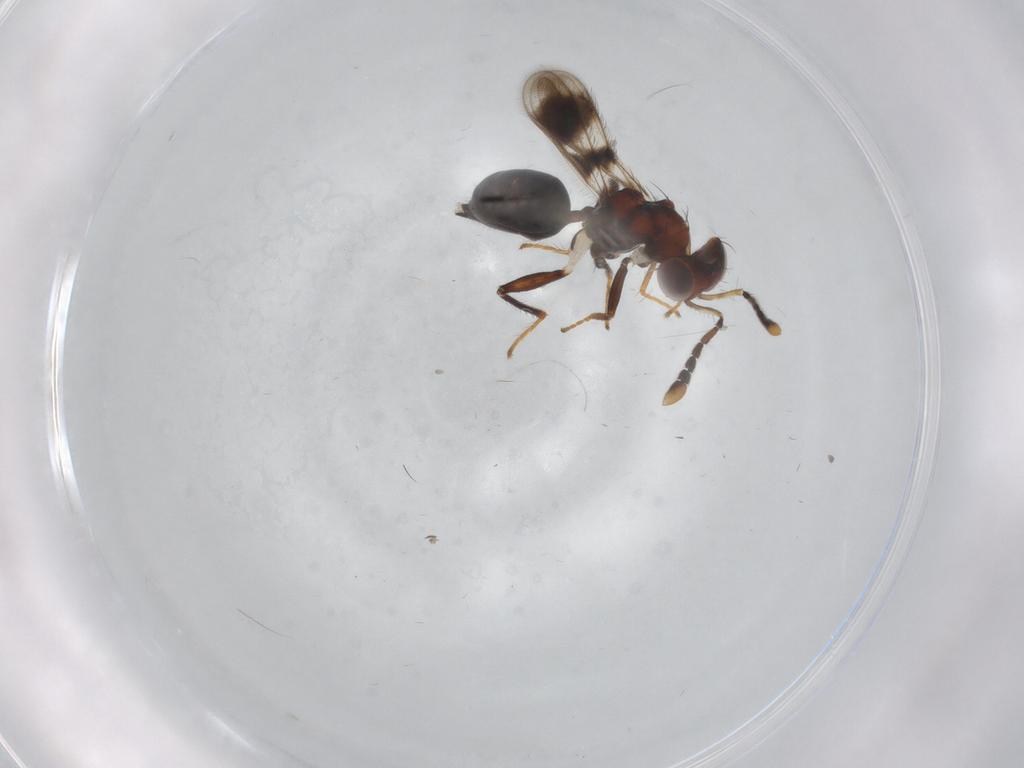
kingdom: Animalia
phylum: Arthropoda
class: Insecta
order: Hymenoptera
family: Eulophidae
